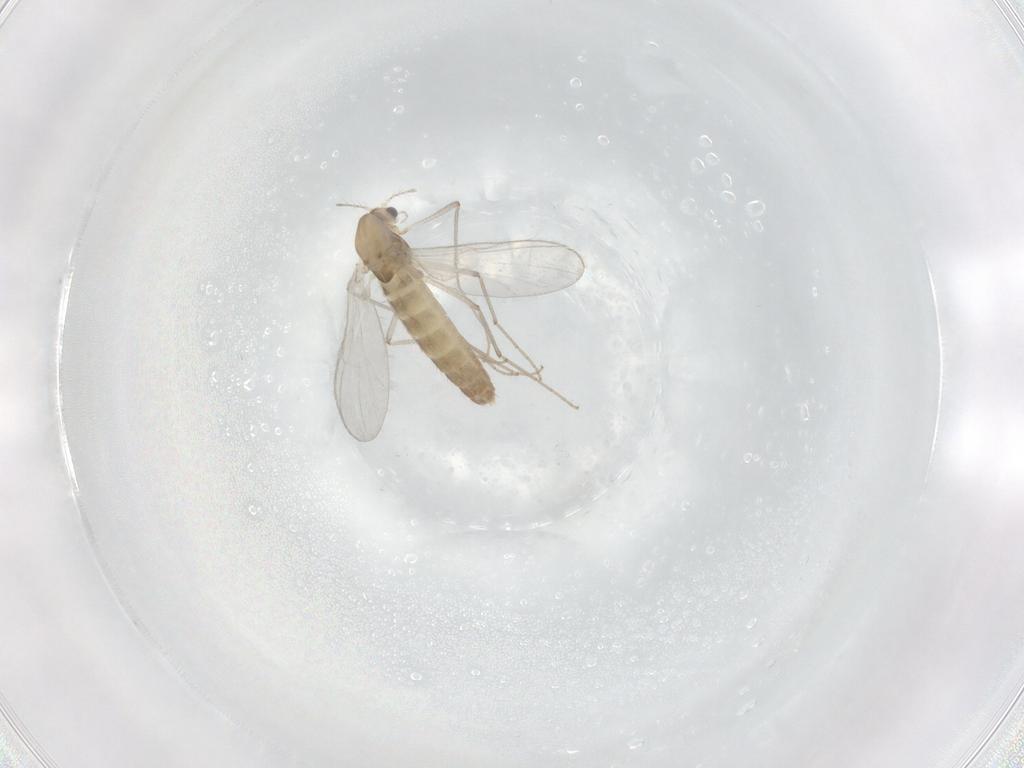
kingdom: Animalia
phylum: Arthropoda
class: Insecta
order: Diptera
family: Chironomidae
